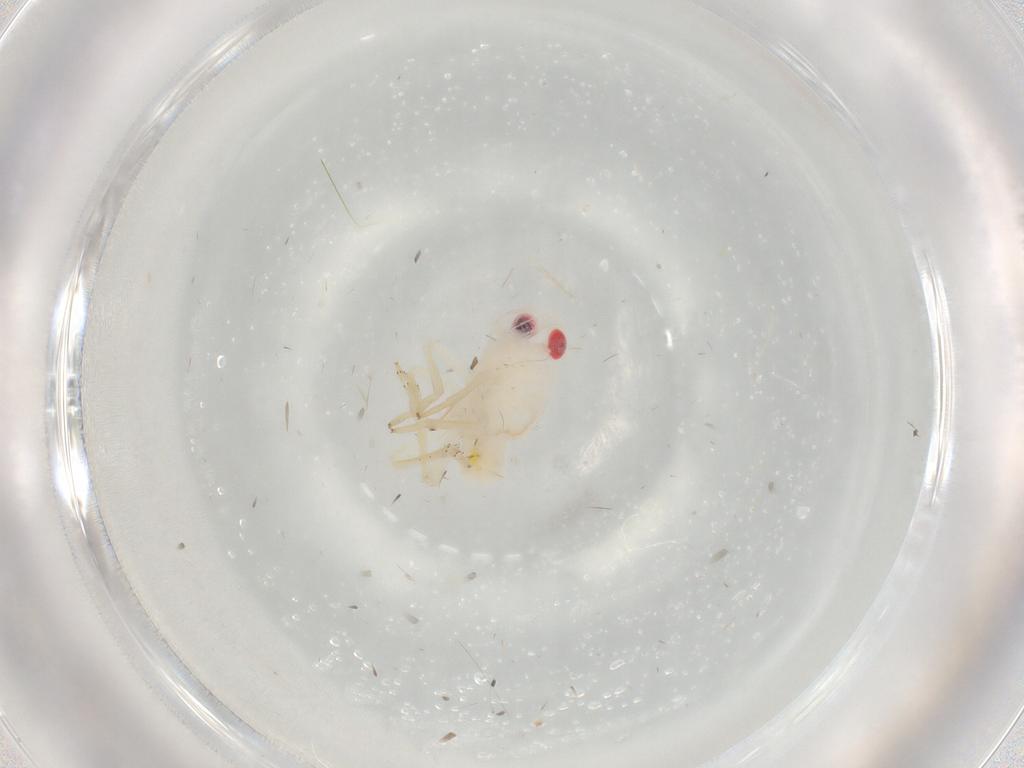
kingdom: Animalia
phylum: Arthropoda
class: Insecta
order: Hemiptera
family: Tropiduchidae
